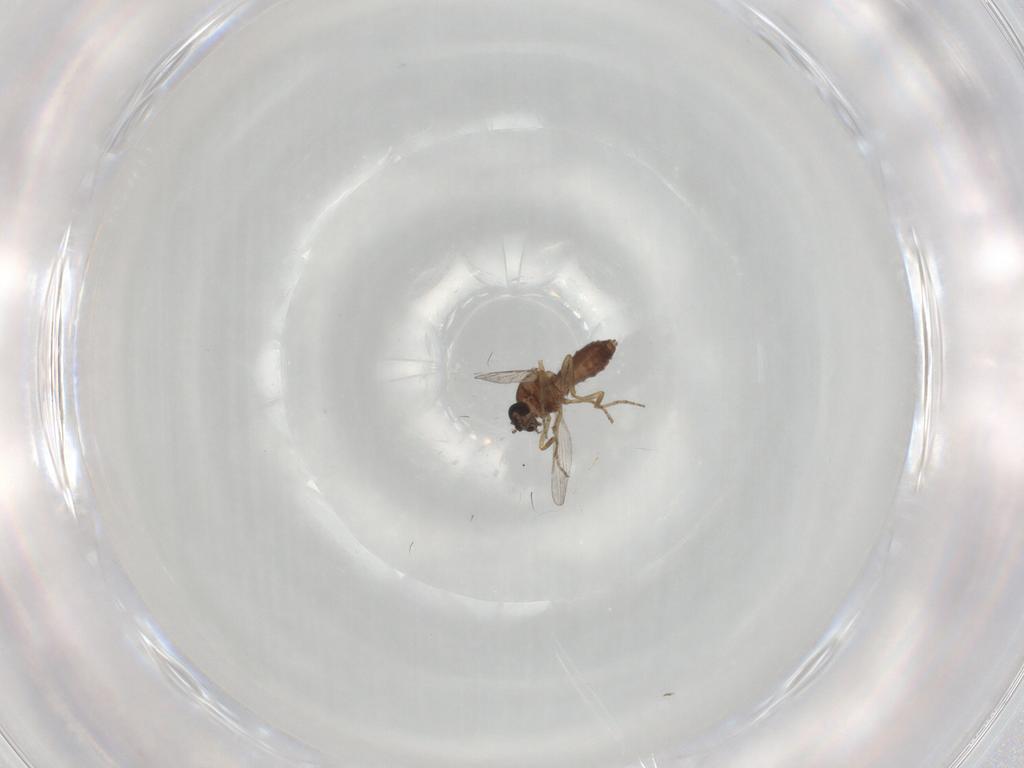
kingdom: Animalia
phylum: Arthropoda
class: Insecta
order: Diptera
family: Ceratopogonidae
